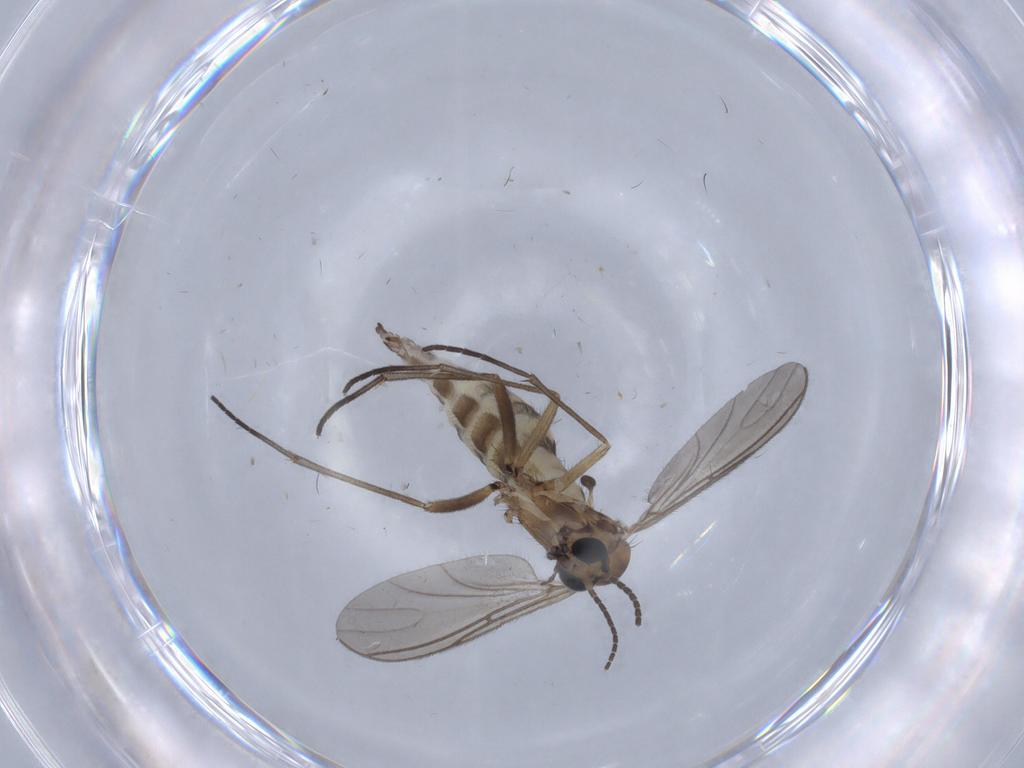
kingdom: Animalia
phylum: Arthropoda
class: Insecta
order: Diptera
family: Sciaridae
